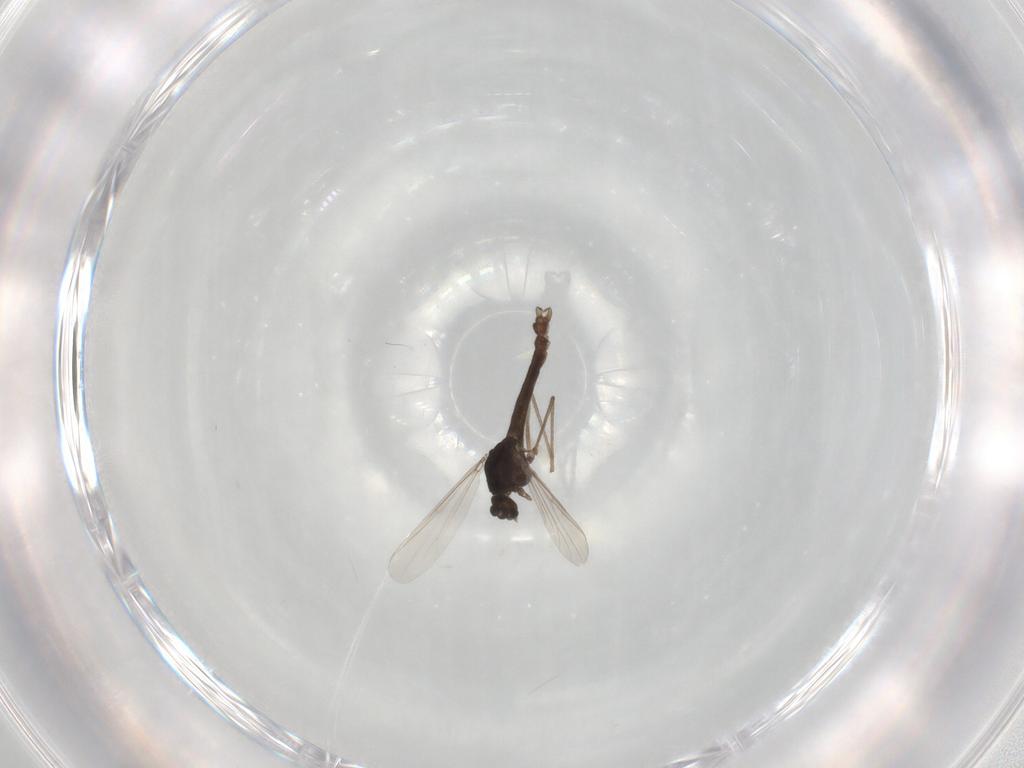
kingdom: Animalia
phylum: Arthropoda
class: Insecta
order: Diptera
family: Chironomidae
